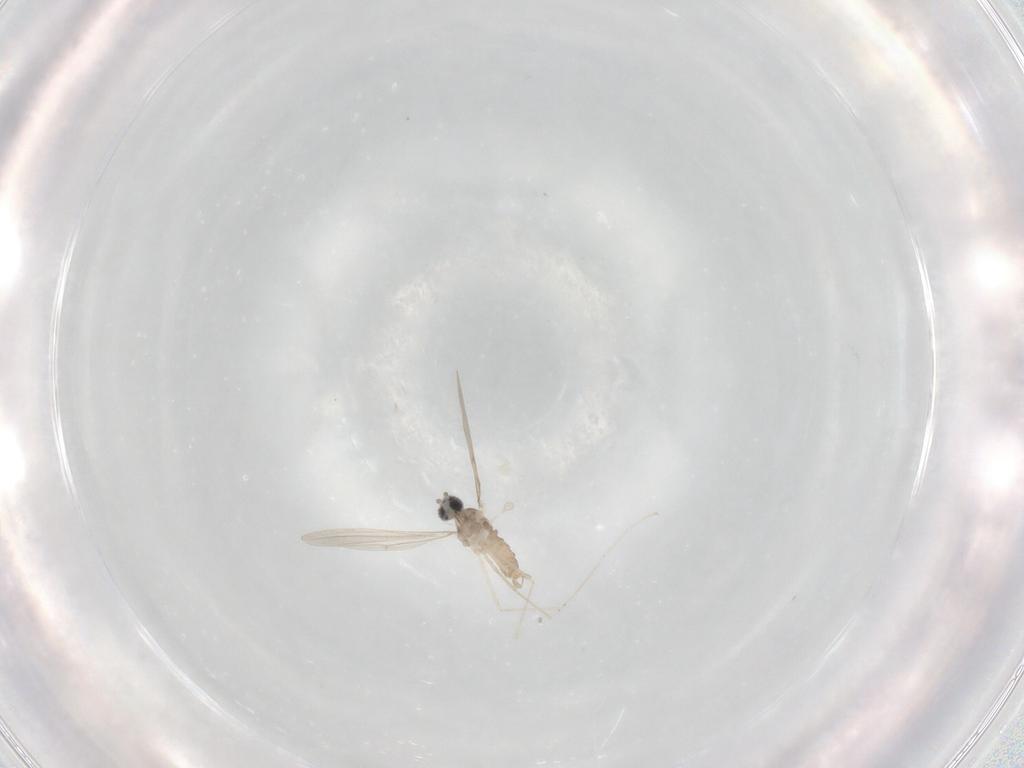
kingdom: Animalia
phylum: Arthropoda
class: Insecta
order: Diptera
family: Cecidomyiidae
